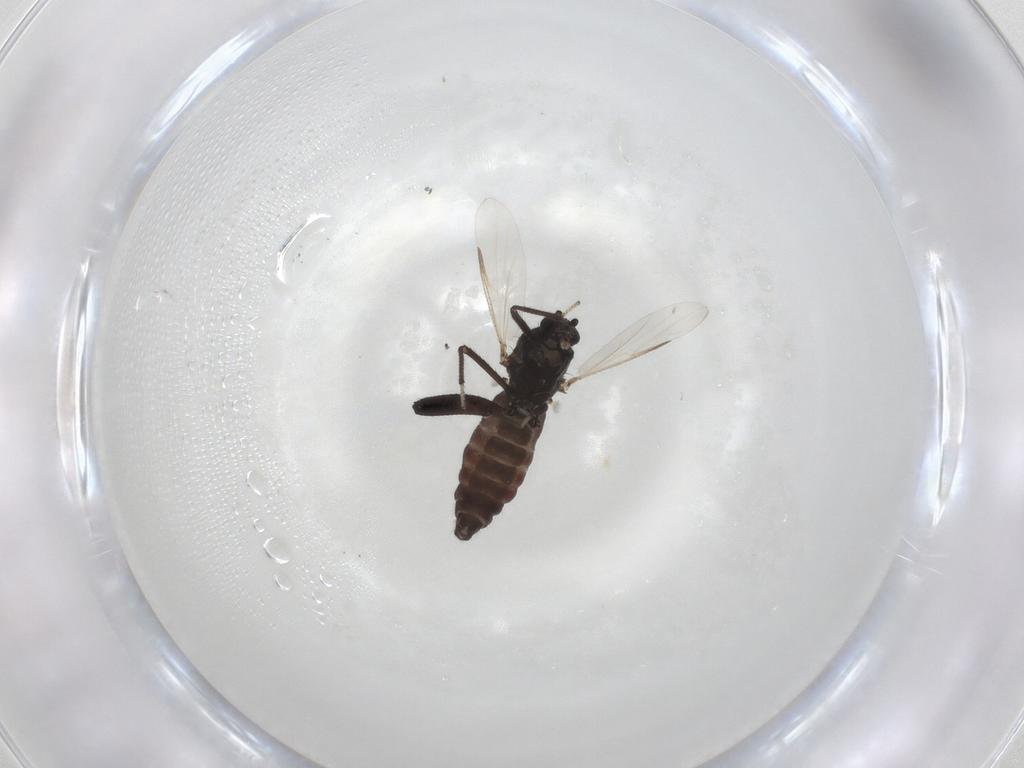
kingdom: Animalia
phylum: Arthropoda
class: Insecta
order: Diptera
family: Ceratopogonidae
